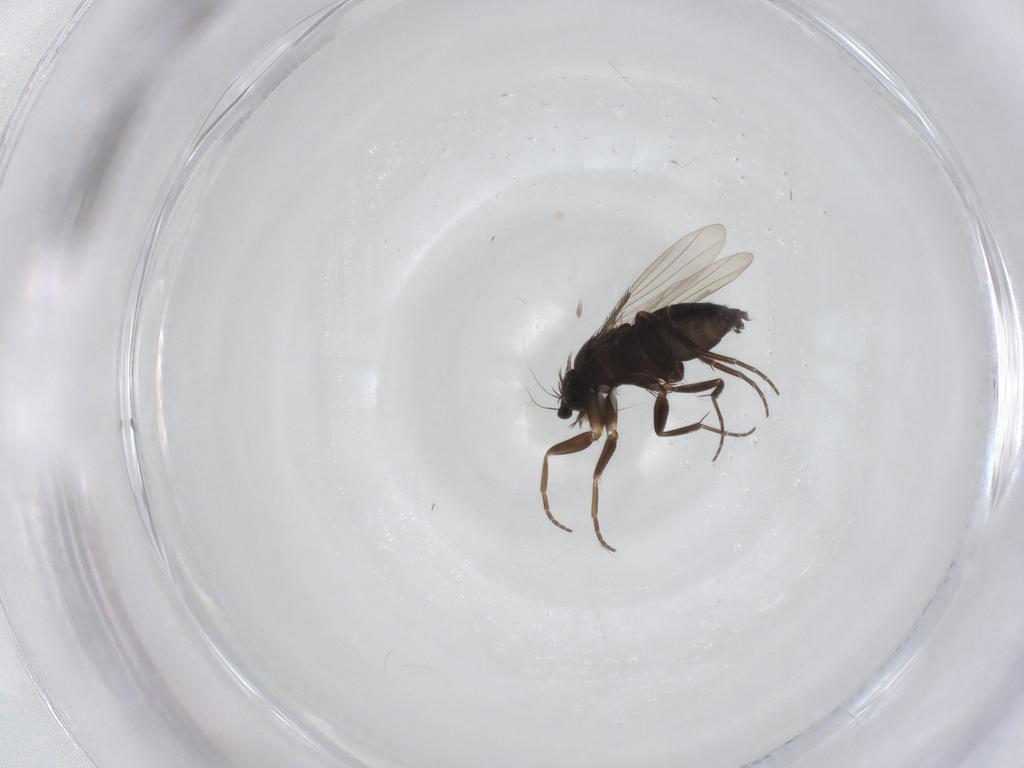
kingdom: Animalia
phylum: Arthropoda
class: Insecta
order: Diptera
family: Phoridae
